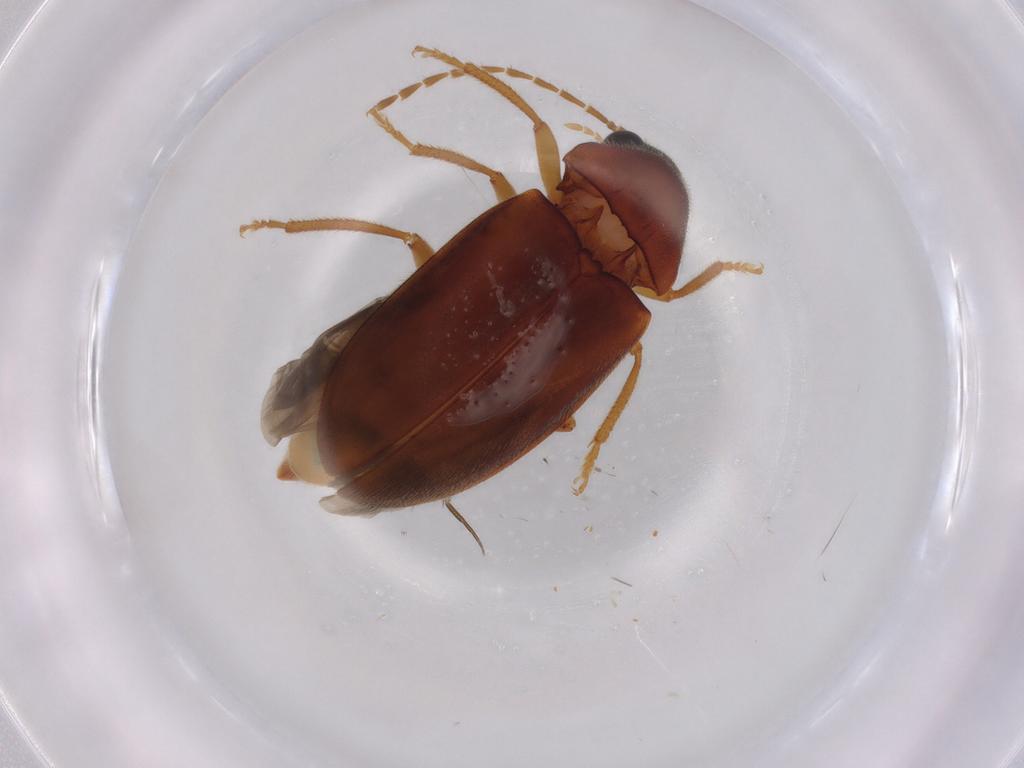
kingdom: Animalia
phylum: Arthropoda
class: Insecta
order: Coleoptera
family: Ptilodactylidae
